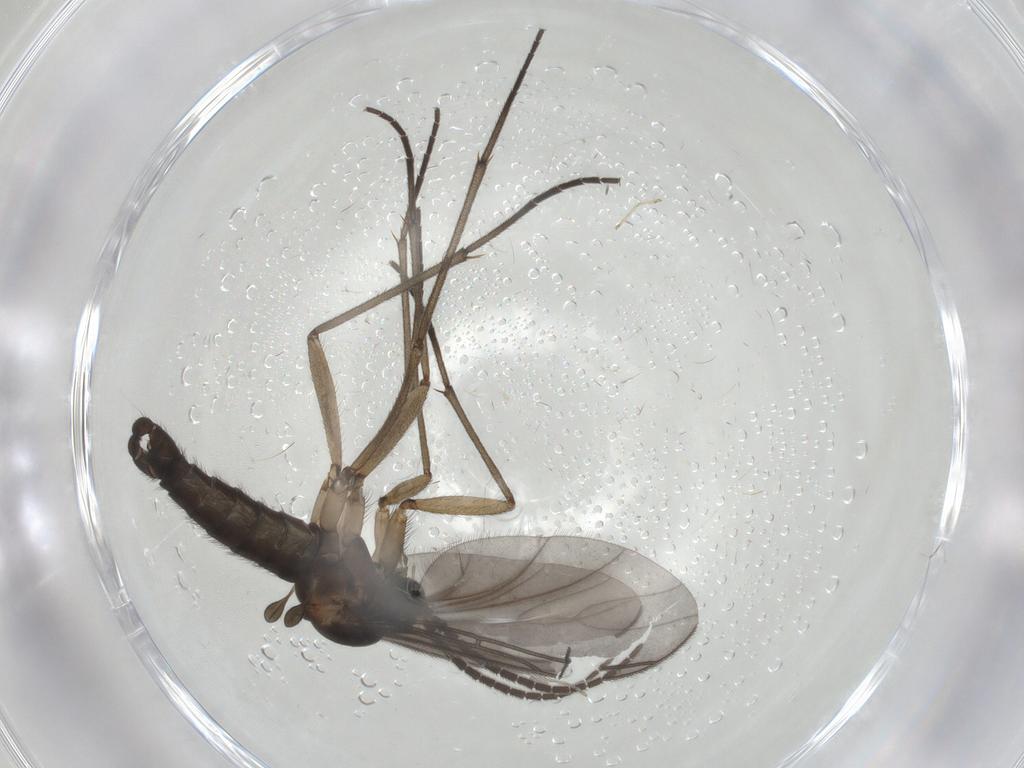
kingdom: Animalia
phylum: Arthropoda
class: Insecta
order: Diptera
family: Sciaridae
